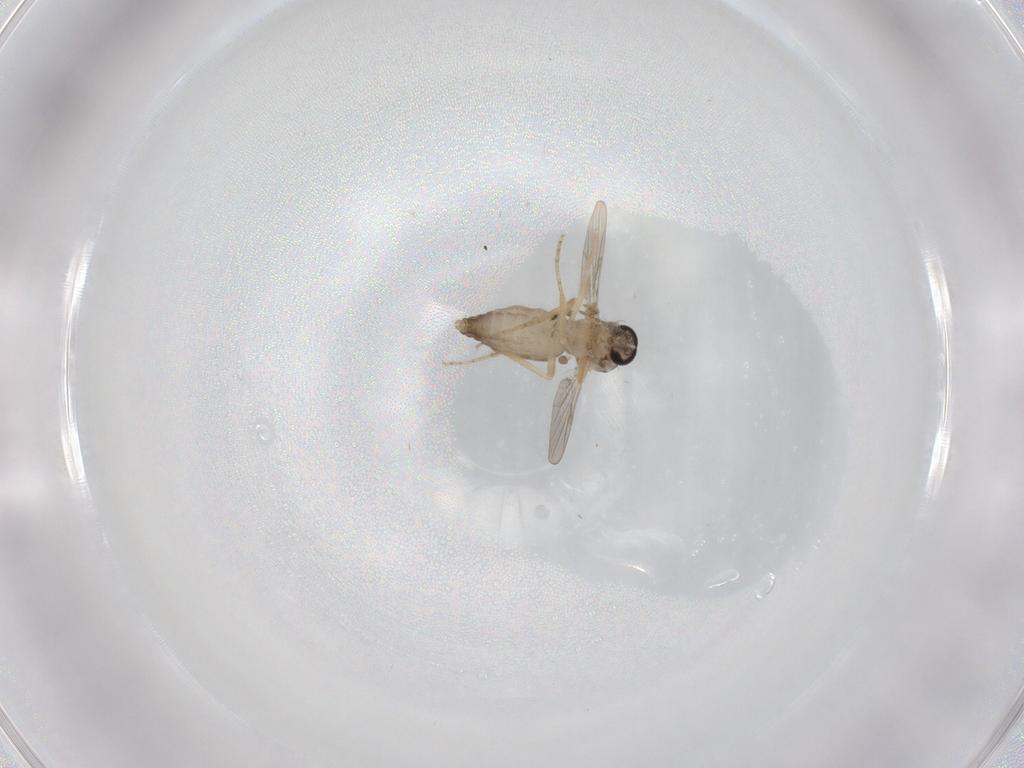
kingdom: Animalia
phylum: Arthropoda
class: Insecta
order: Diptera
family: Ceratopogonidae
